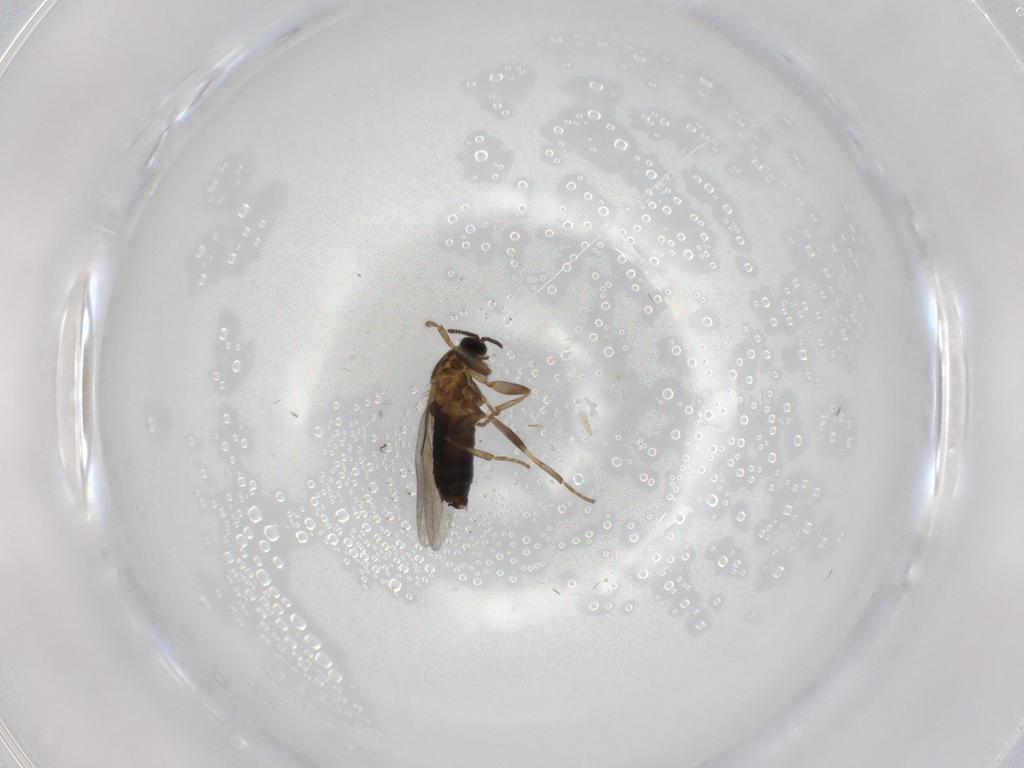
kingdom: Animalia
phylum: Arthropoda
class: Insecta
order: Diptera
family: Scatopsidae
